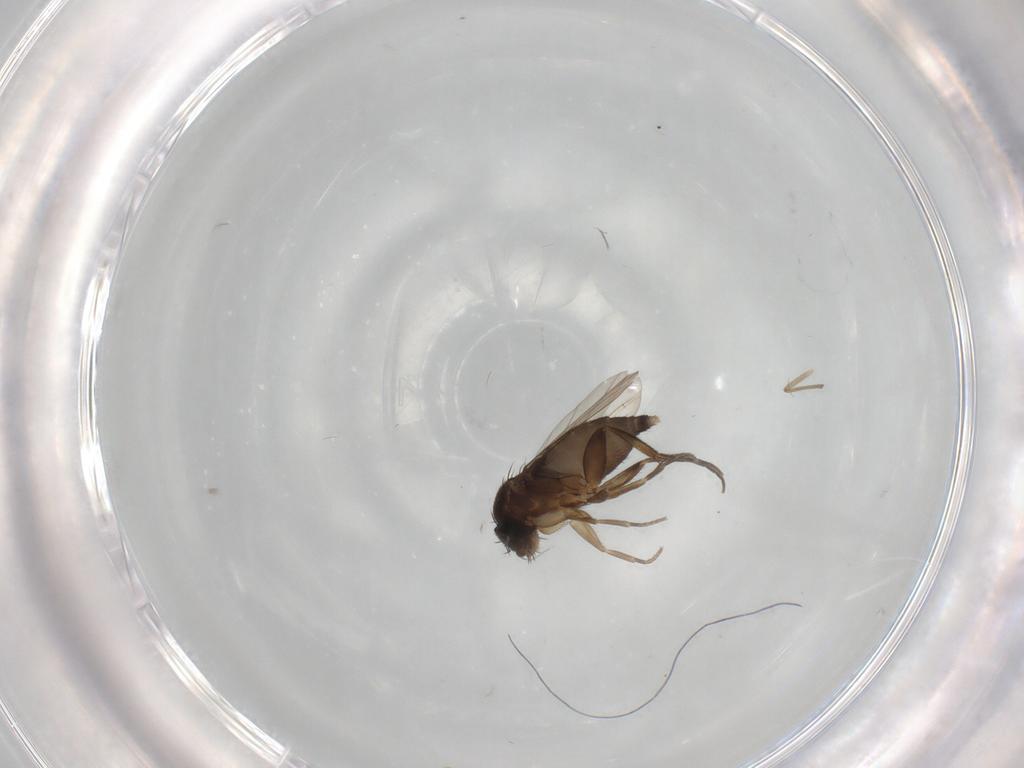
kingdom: Animalia
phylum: Arthropoda
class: Insecta
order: Diptera
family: Phoridae
